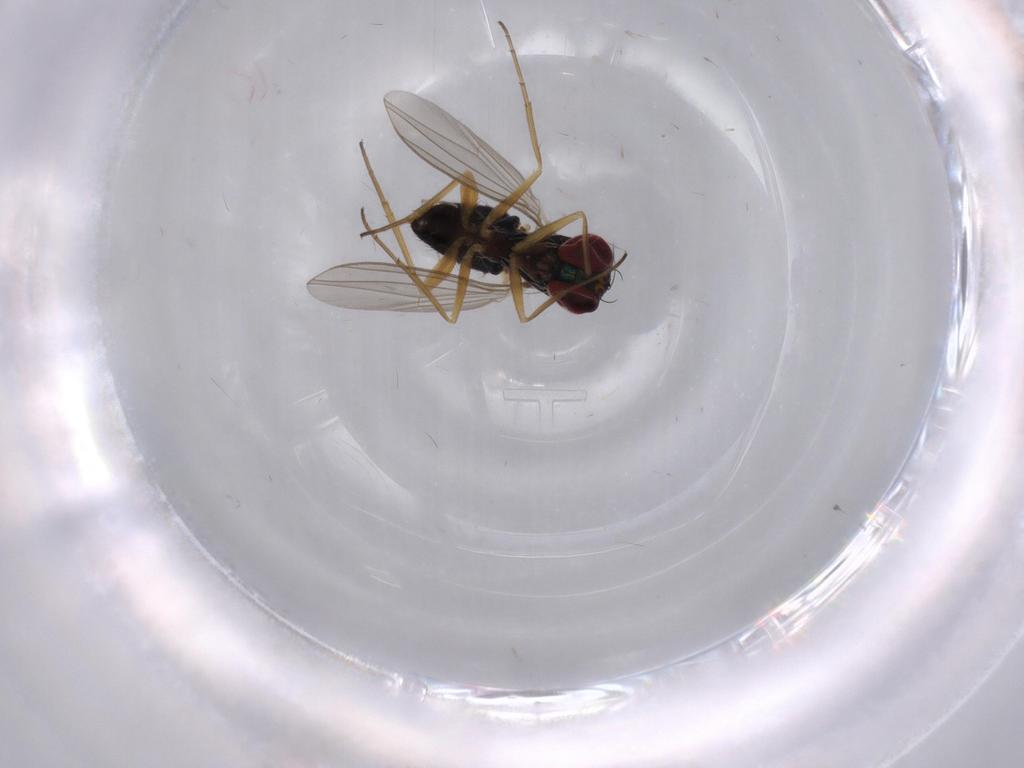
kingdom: Animalia
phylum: Arthropoda
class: Insecta
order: Diptera
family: Dolichopodidae
